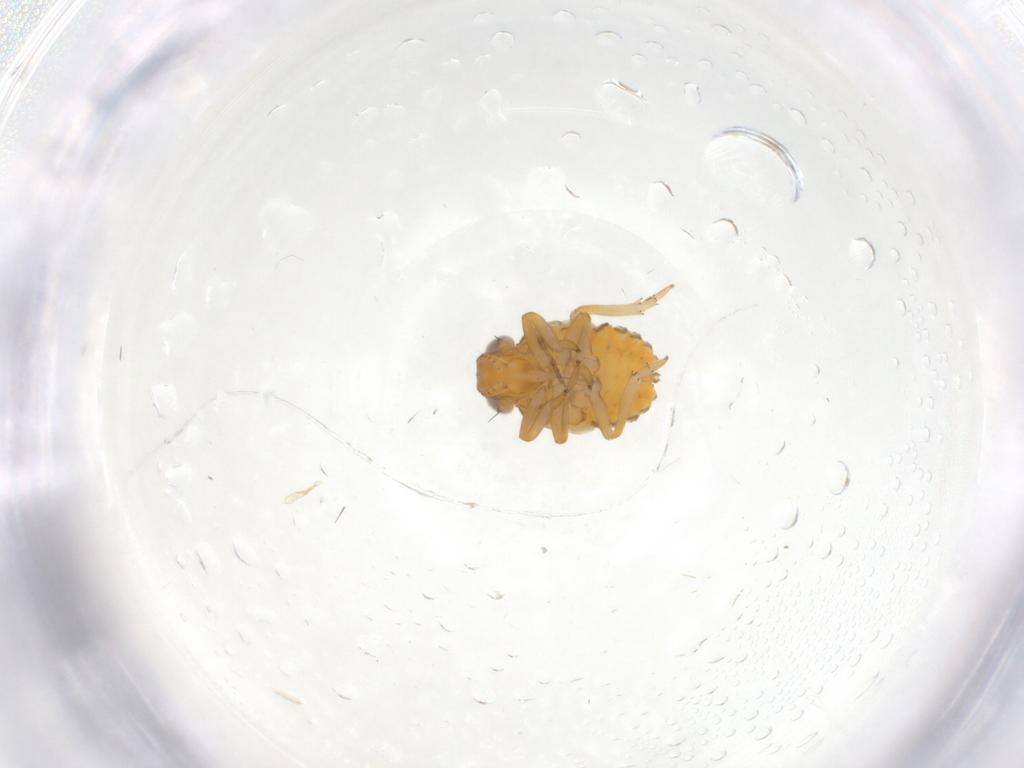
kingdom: Animalia
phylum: Arthropoda
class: Insecta
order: Hemiptera
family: Issidae
